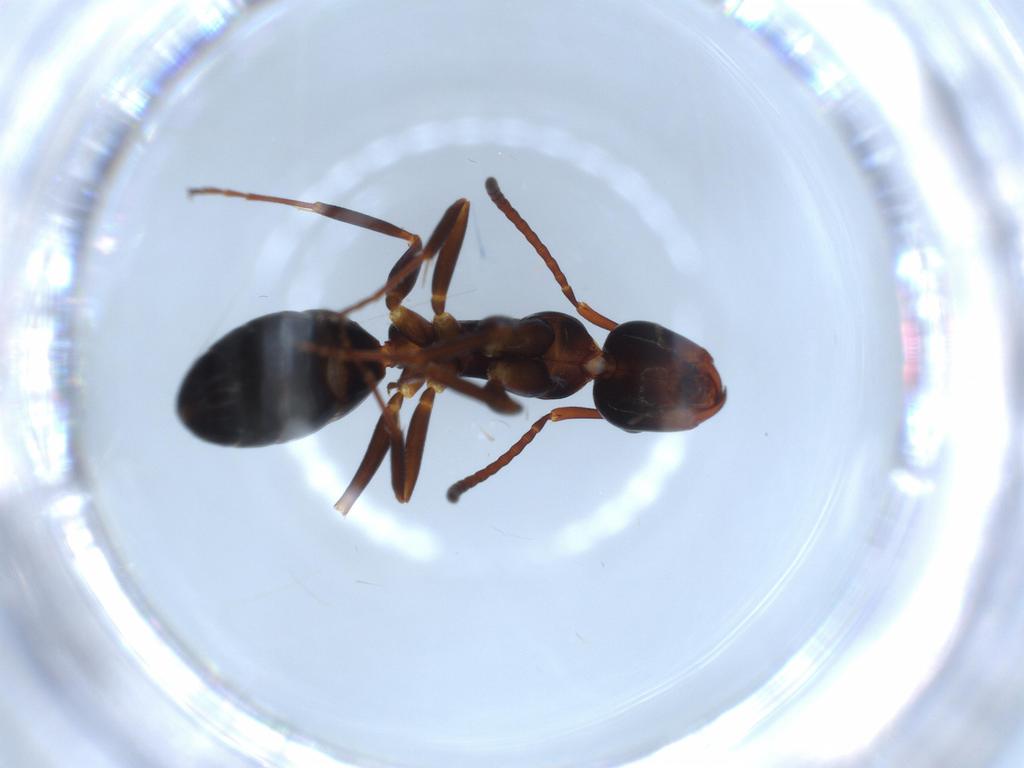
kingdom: Animalia
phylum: Arthropoda
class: Insecta
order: Hymenoptera
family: Formicidae
